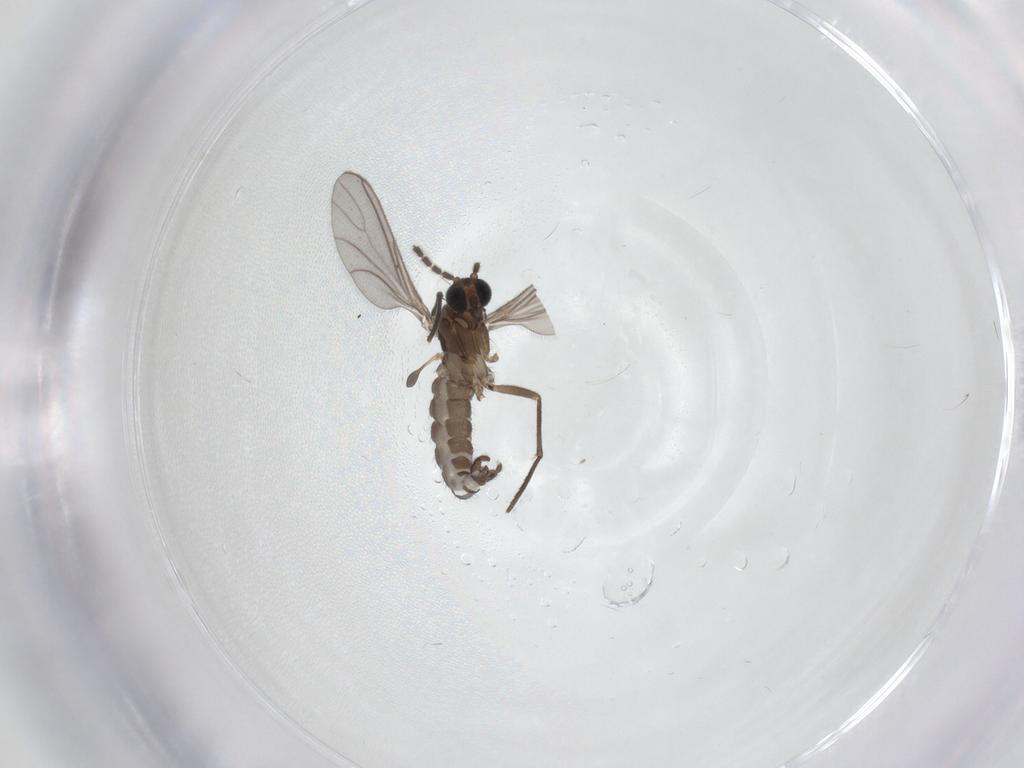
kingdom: Animalia
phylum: Arthropoda
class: Insecta
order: Diptera
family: Sciaridae
